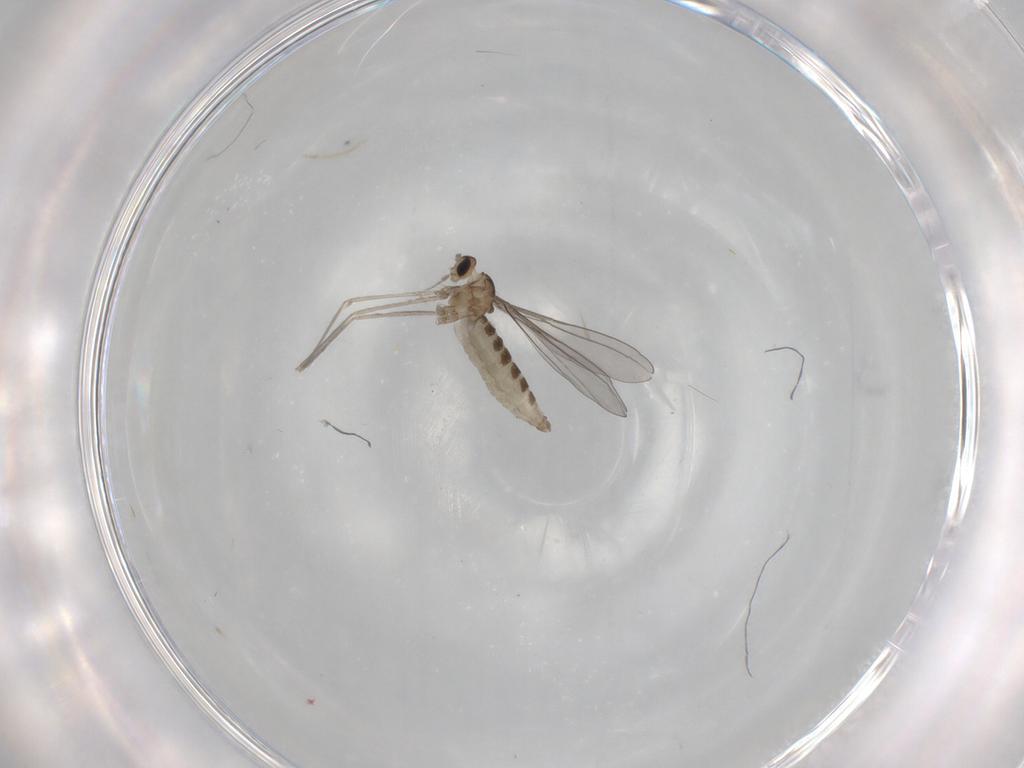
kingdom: Animalia
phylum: Arthropoda
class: Insecta
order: Diptera
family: Cecidomyiidae
